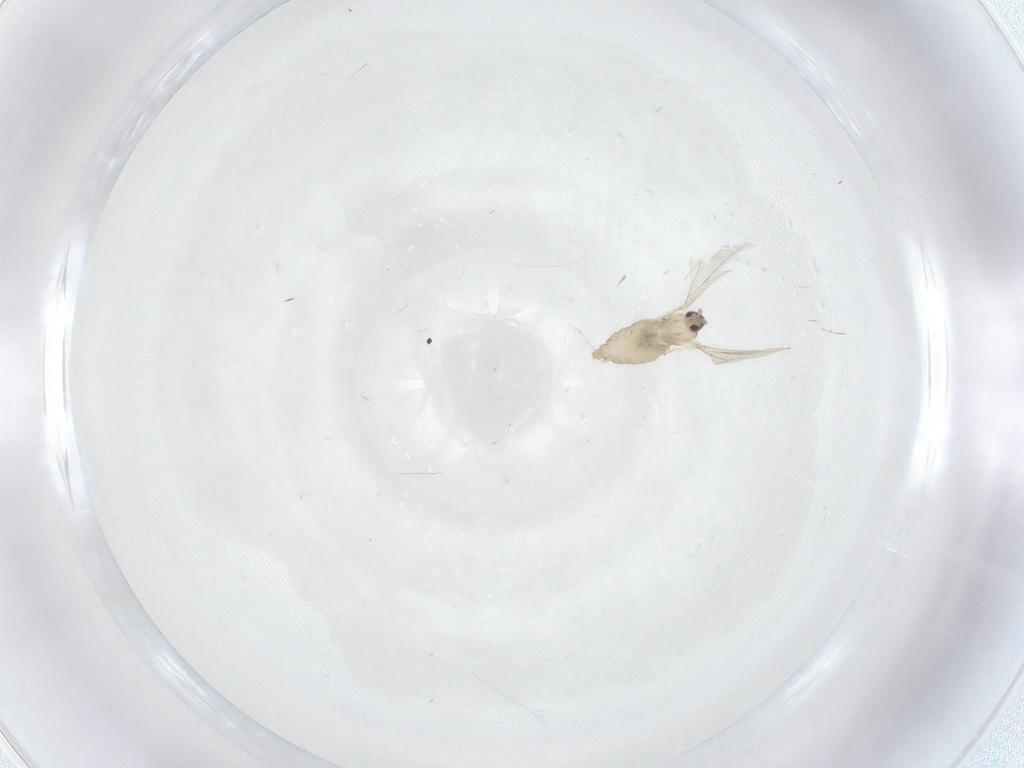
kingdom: Animalia
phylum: Arthropoda
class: Insecta
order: Diptera
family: Cecidomyiidae
